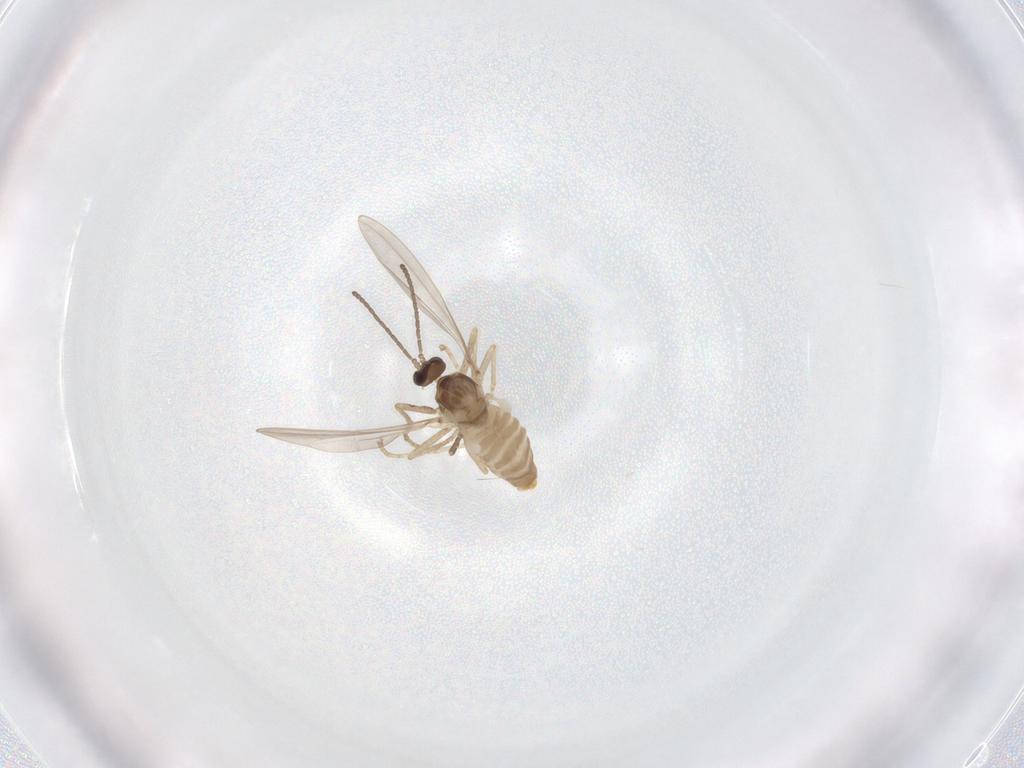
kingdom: Animalia
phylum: Arthropoda
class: Insecta
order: Diptera
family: Cecidomyiidae
